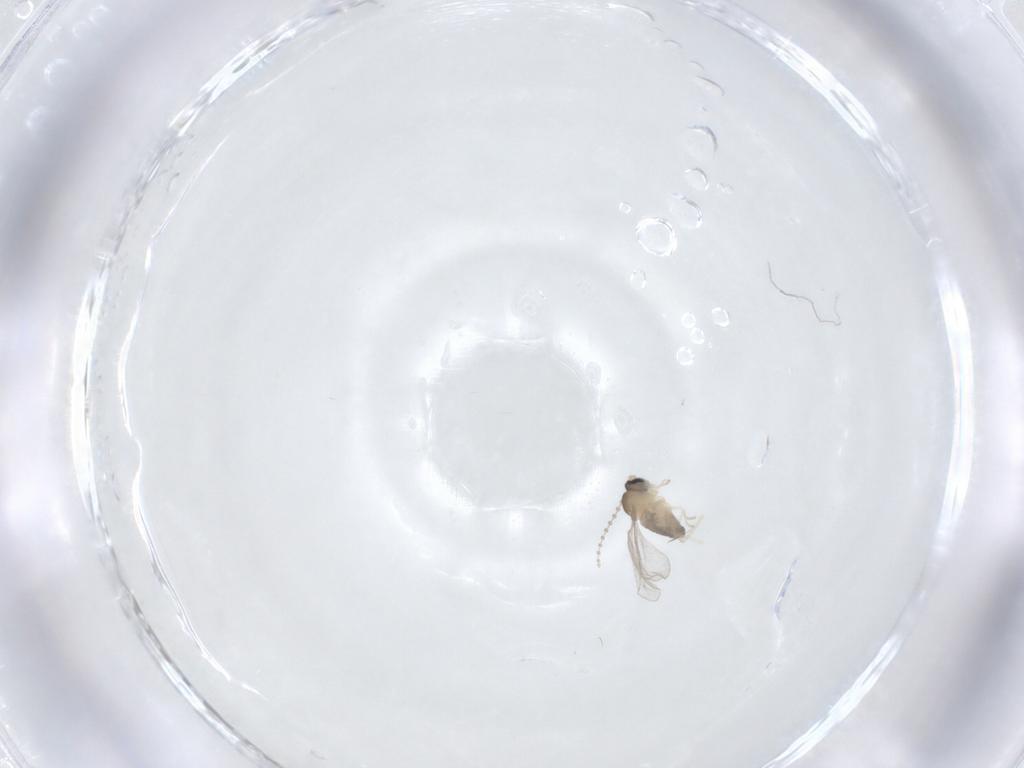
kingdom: Animalia
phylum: Arthropoda
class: Insecta
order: Diptera
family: Cecidomyiidae
